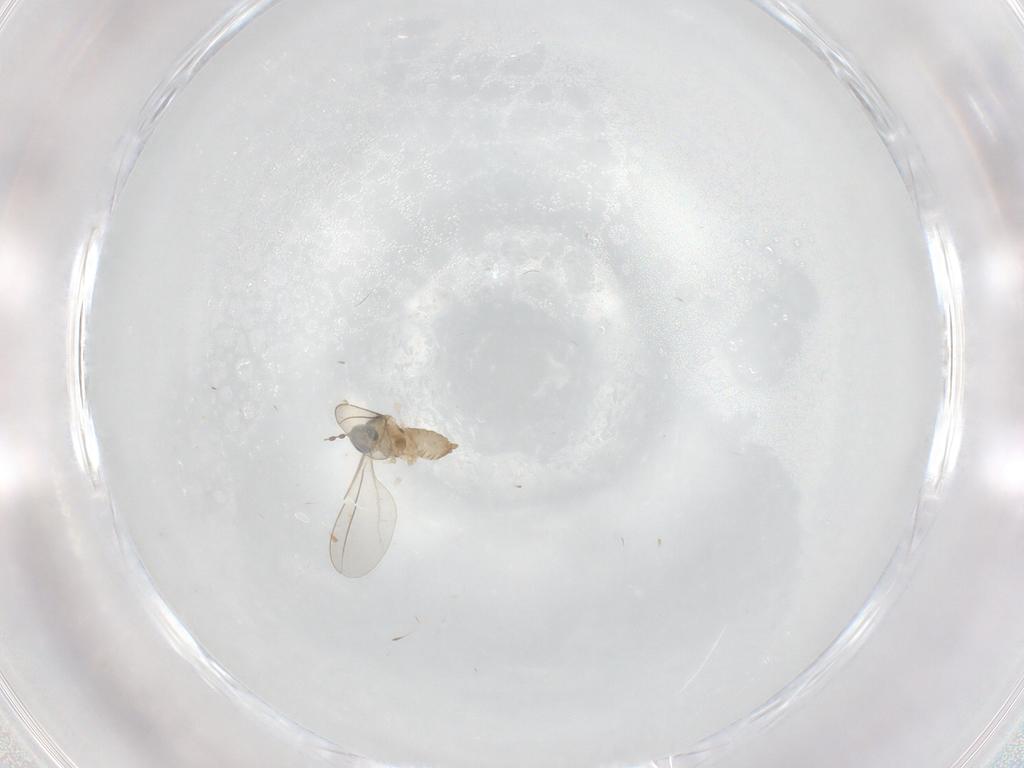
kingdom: Animalia
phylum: Arthropoda
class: Insecta
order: Diptera
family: Cecidomyiidae
